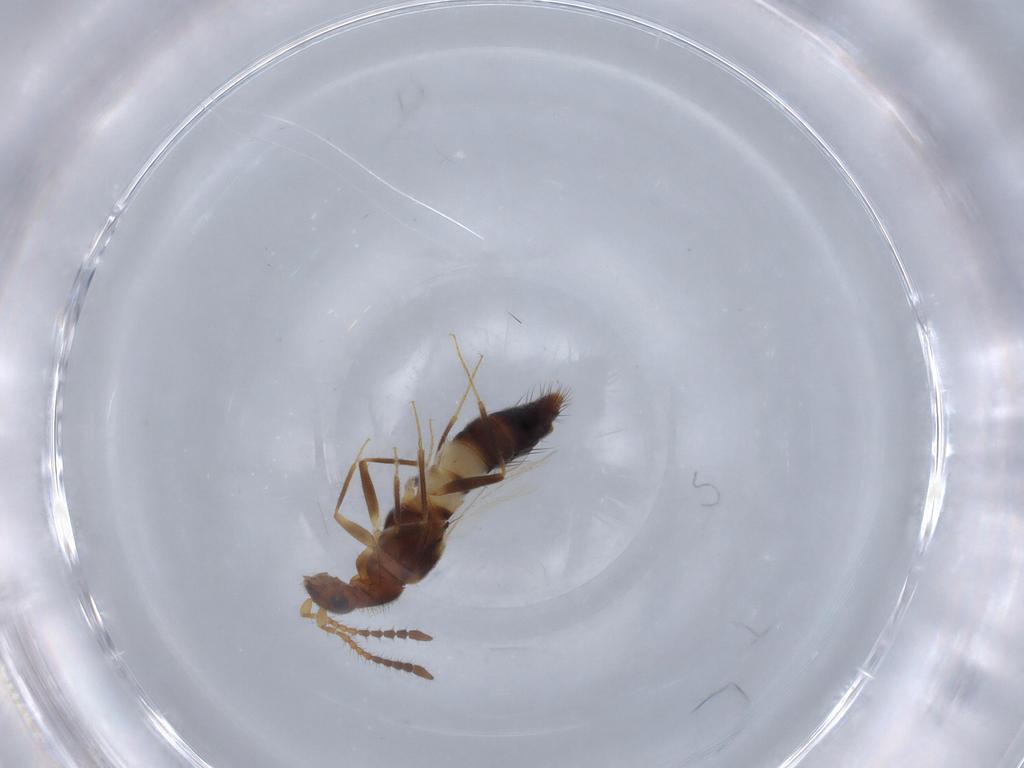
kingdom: Animalia
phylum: Arthropoda
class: Insecta
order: Coleoptera
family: Staphylinidae
